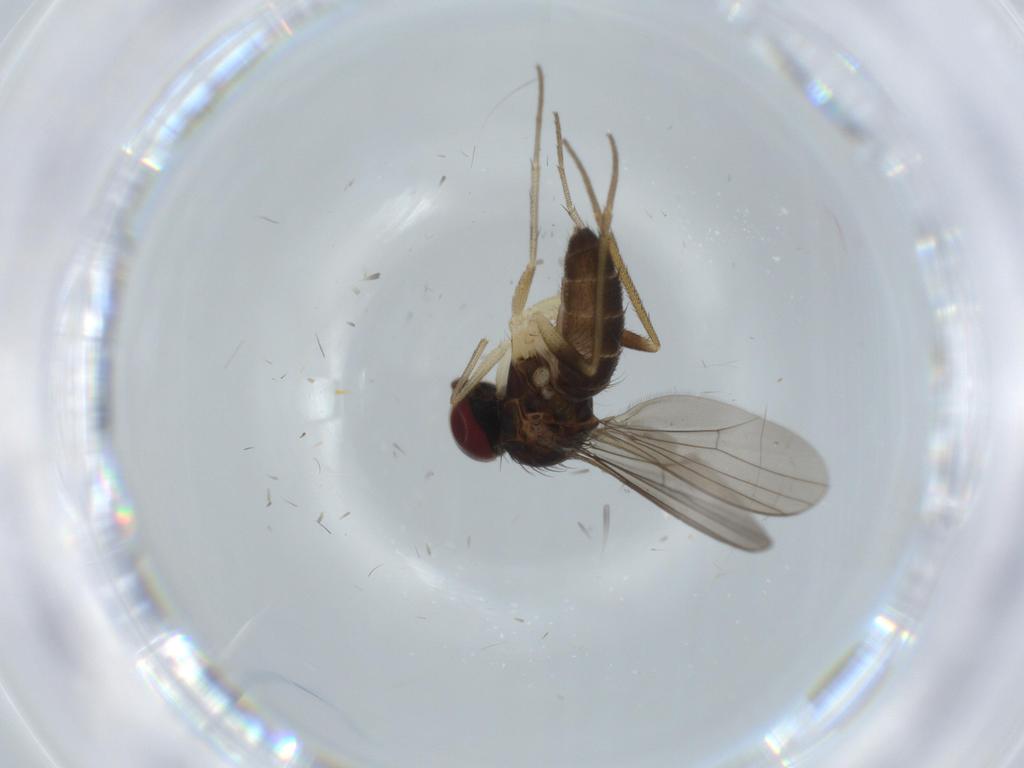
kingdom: Animalia
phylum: Arthropoda
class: Insecta
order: Diptera
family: Dolichopodidae
